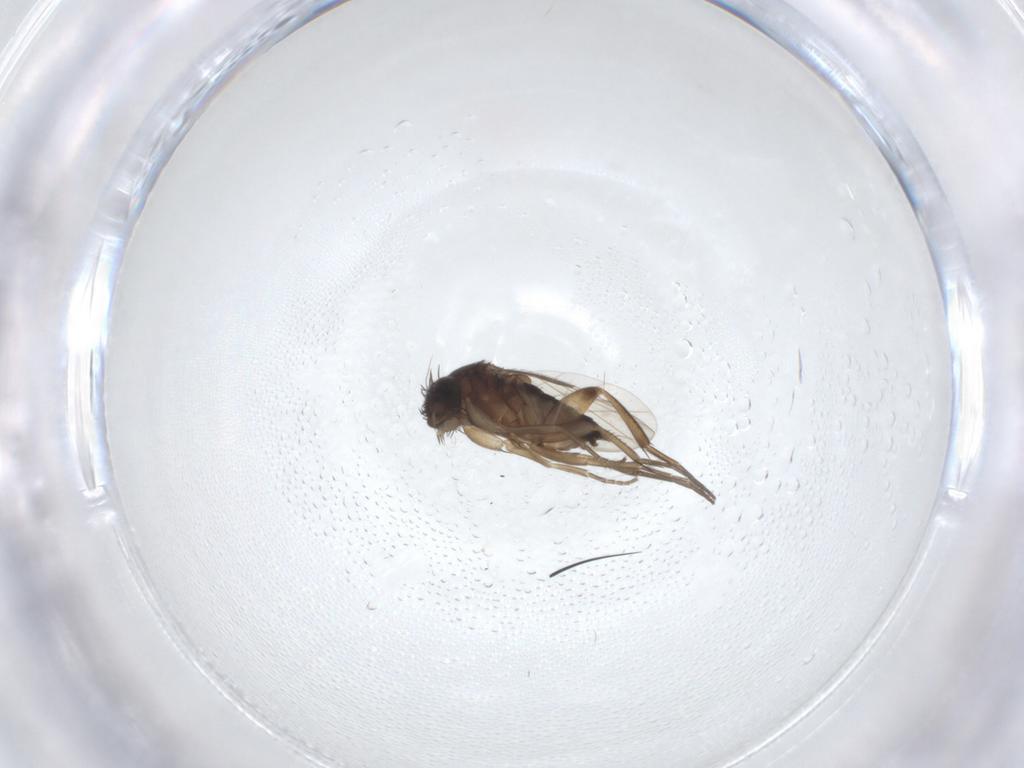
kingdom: Animalia
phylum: Arthropoda
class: Insecta
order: Diptera
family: Phoridae
